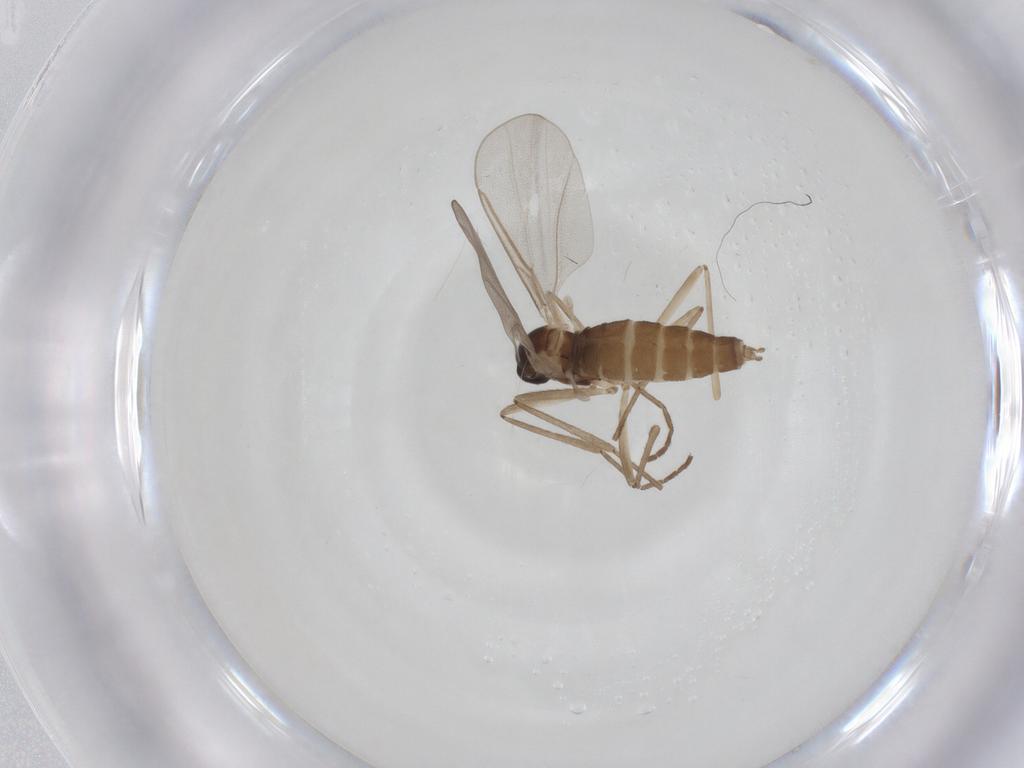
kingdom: Animalia
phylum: Arthropoda
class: Insecta
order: Diptera
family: Cecidomyiidae
